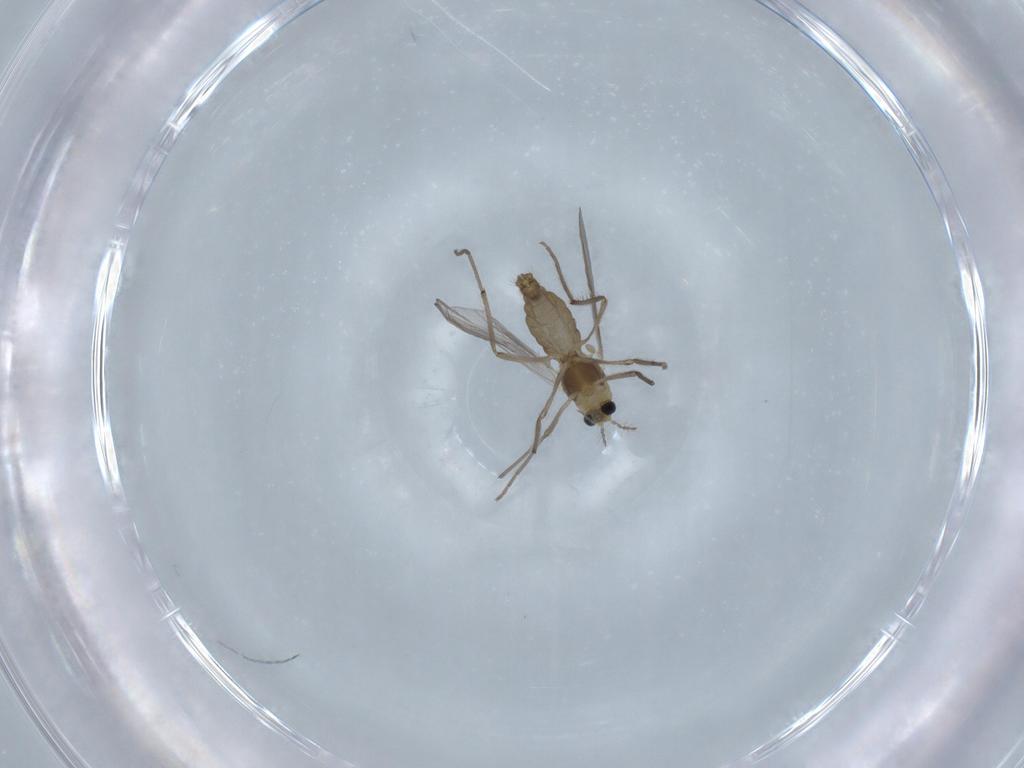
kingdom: Animalia
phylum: Arthropoda
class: Insecta
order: Diptera
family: Chironomidae
